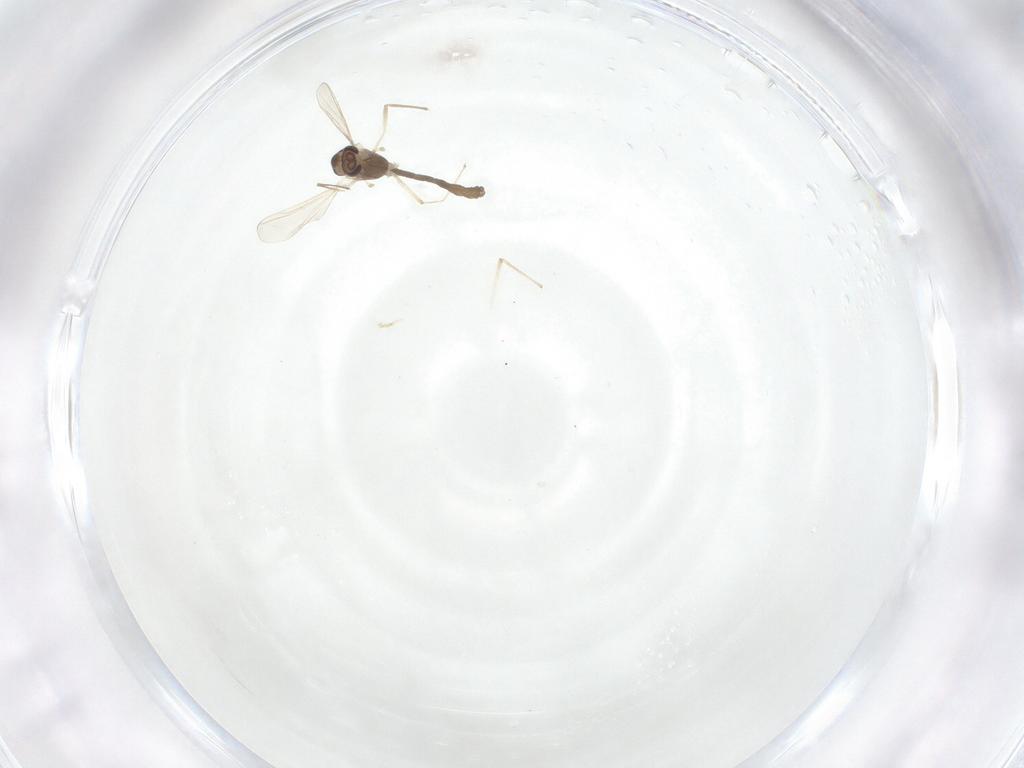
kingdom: Animalia
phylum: Arthropoda
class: Insecta
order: Diptera
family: Chironomidae
